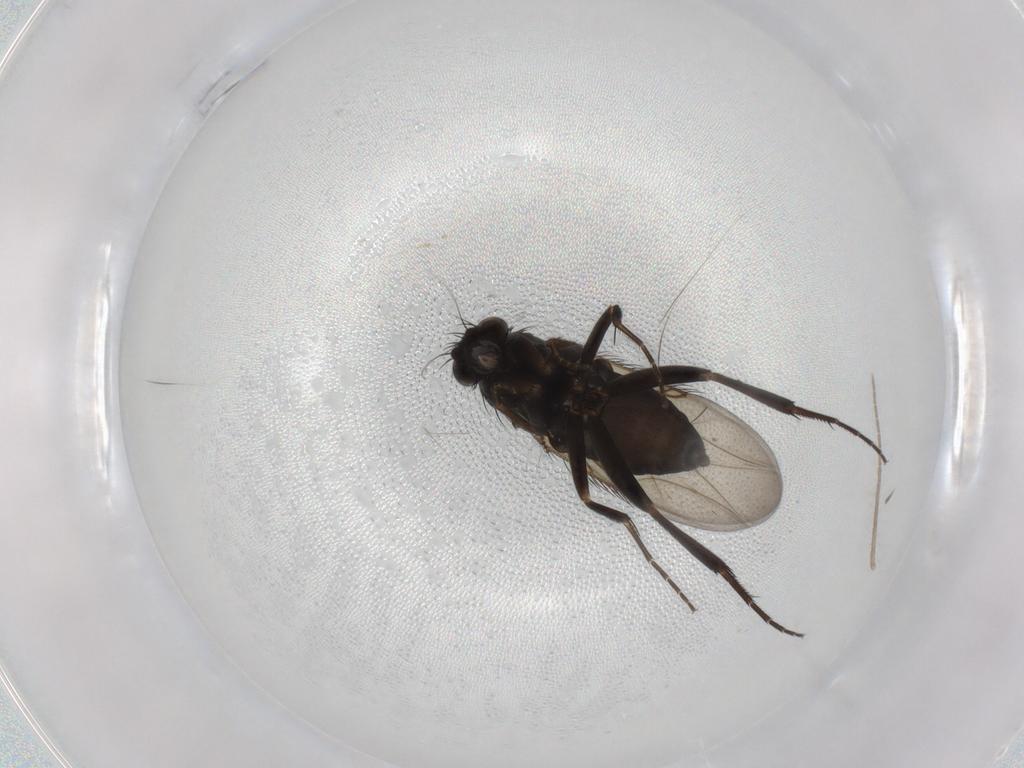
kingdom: Animalia
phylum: Arthropoda
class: Insecta
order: Diptera
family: Phoridae
